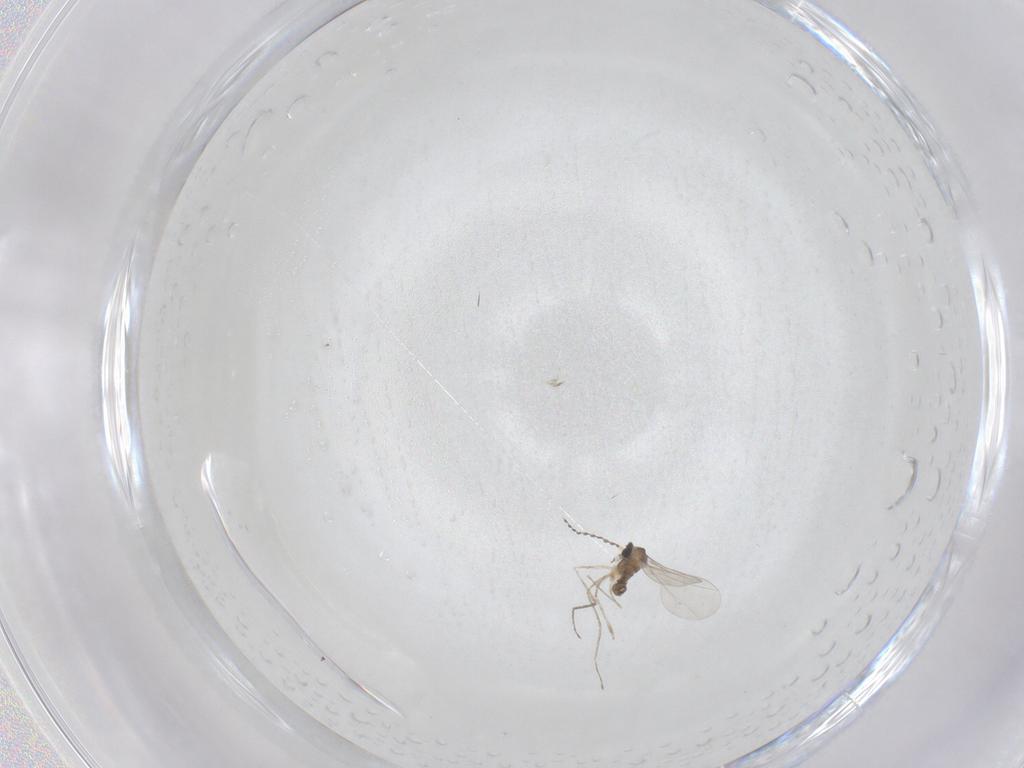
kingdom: Animalia
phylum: Arthropoda
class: Insecta
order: Diptera
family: Cecidomyiidae
